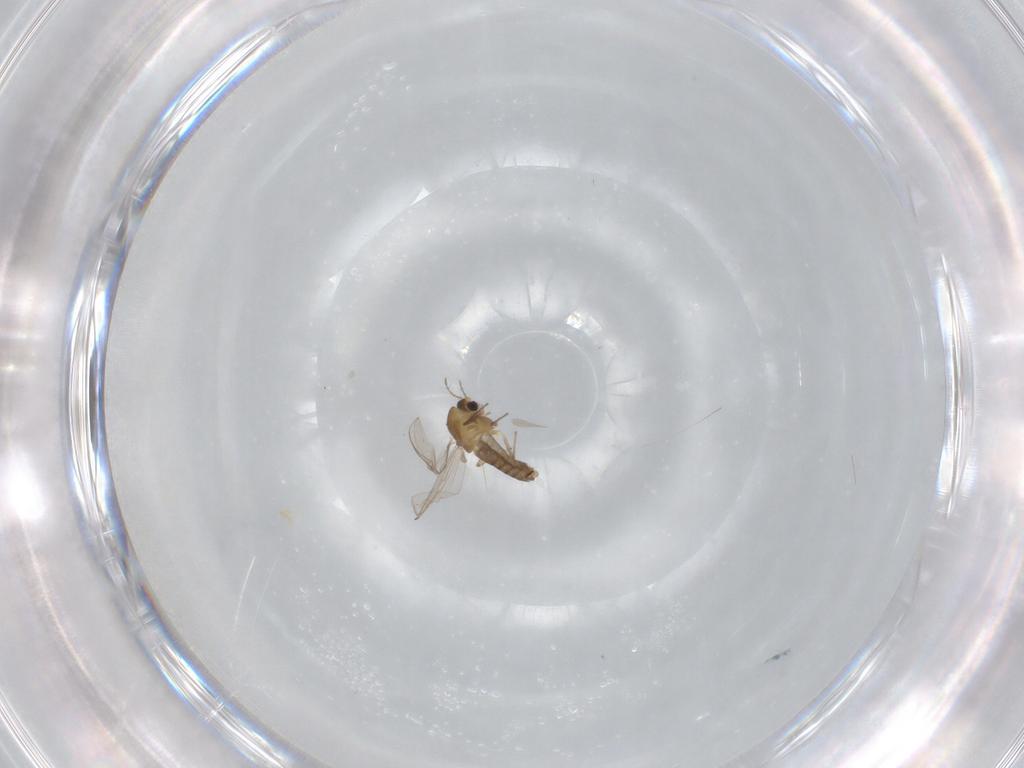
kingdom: Animalia
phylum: Arthropoda
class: Insecta
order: Diptera
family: Chironomidae
